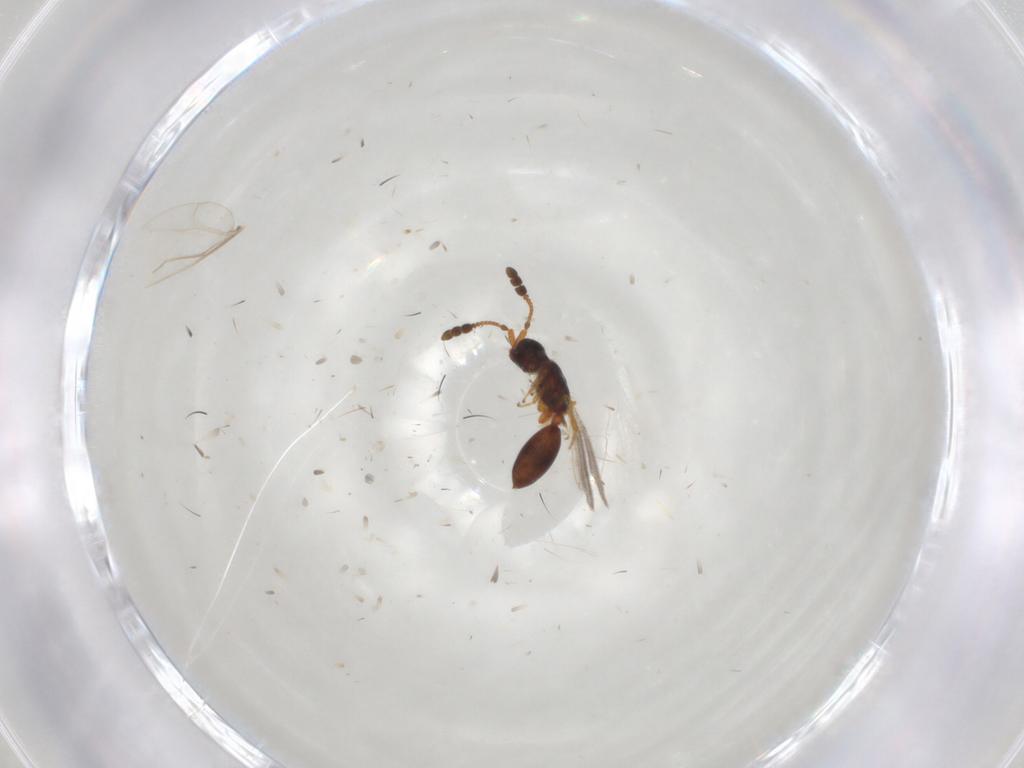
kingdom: Animalia
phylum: Arthropoda
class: Insecta
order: Hymenoptera
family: Diapriidae
